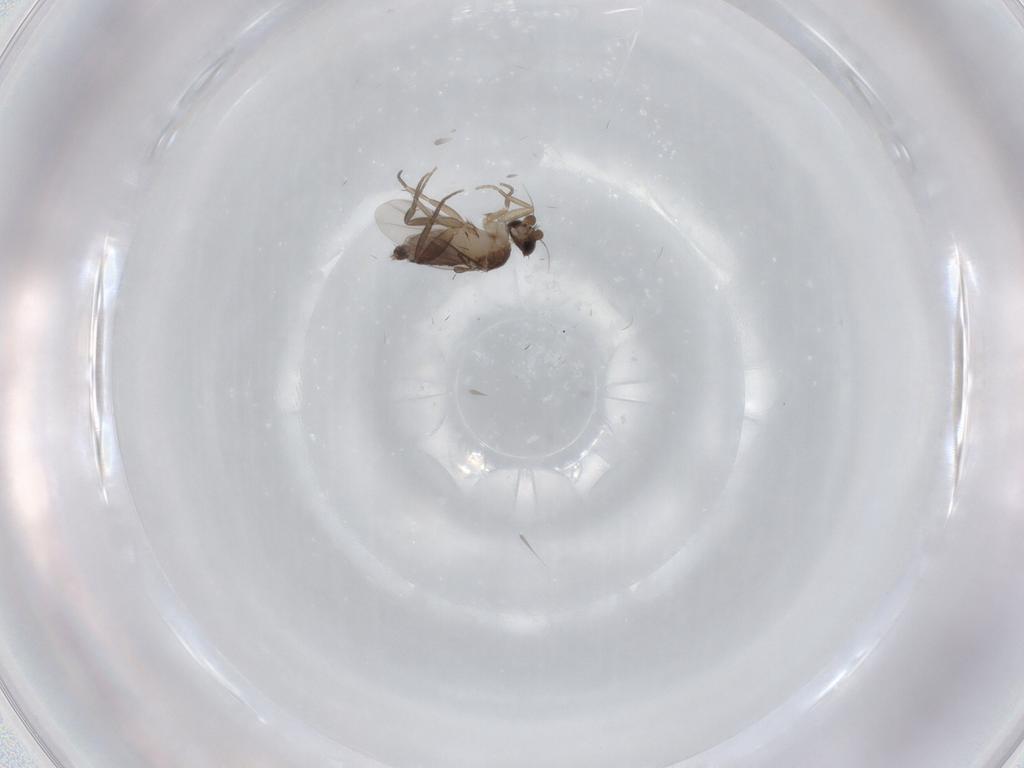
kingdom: Animalia
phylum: Arthropoda
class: Insecta
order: Diptera
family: Phoridae
